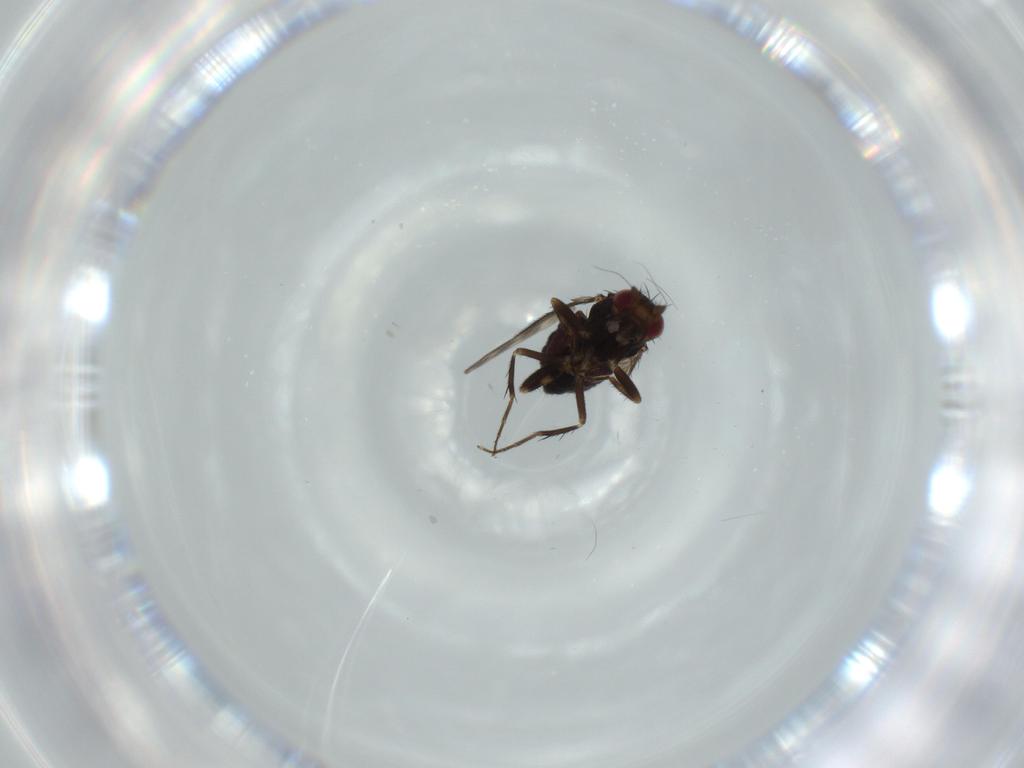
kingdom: Animalia
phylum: Arthropoda
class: Insecta
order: Diptera
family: Sphaeroceridae
